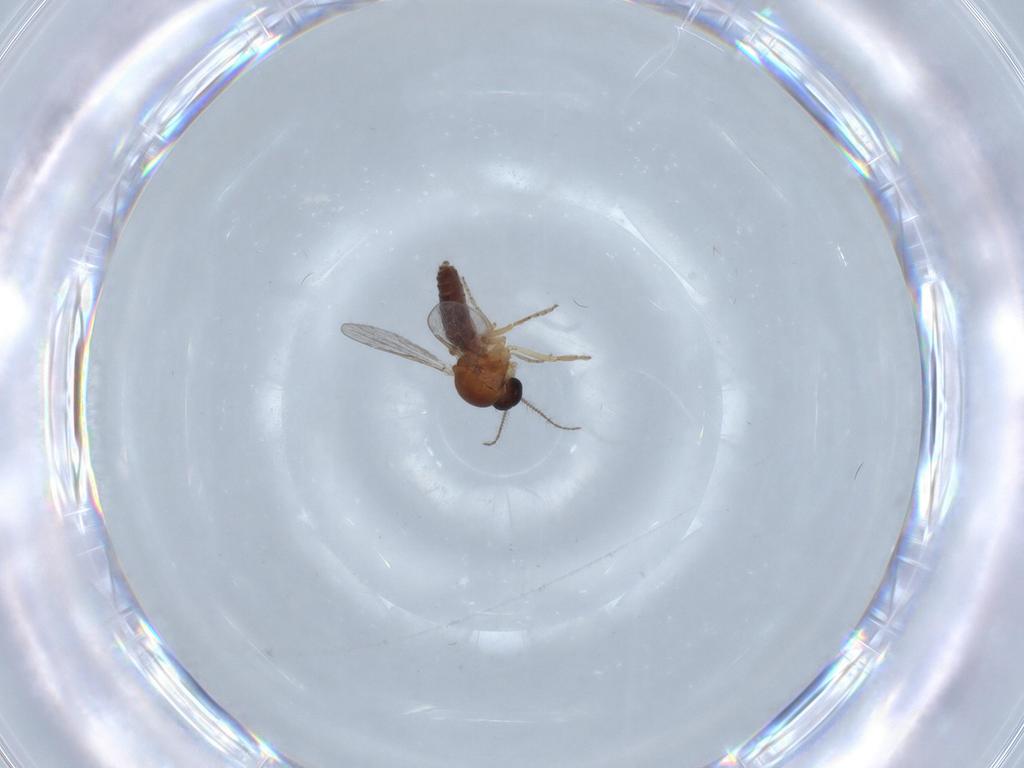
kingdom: Animalia
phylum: Arthropoda
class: Insecta
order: Diptera
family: Ceratopogonidae
